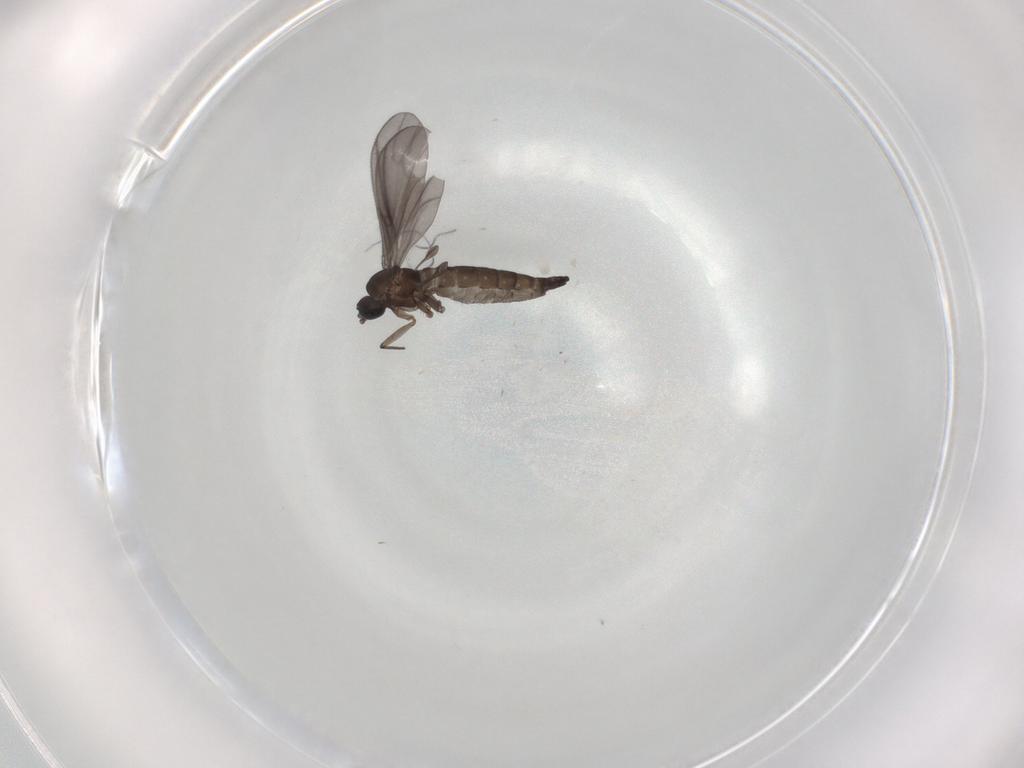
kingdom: Animalia
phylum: Arthropoda
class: Insecta
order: Diptera
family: Sciaridae
